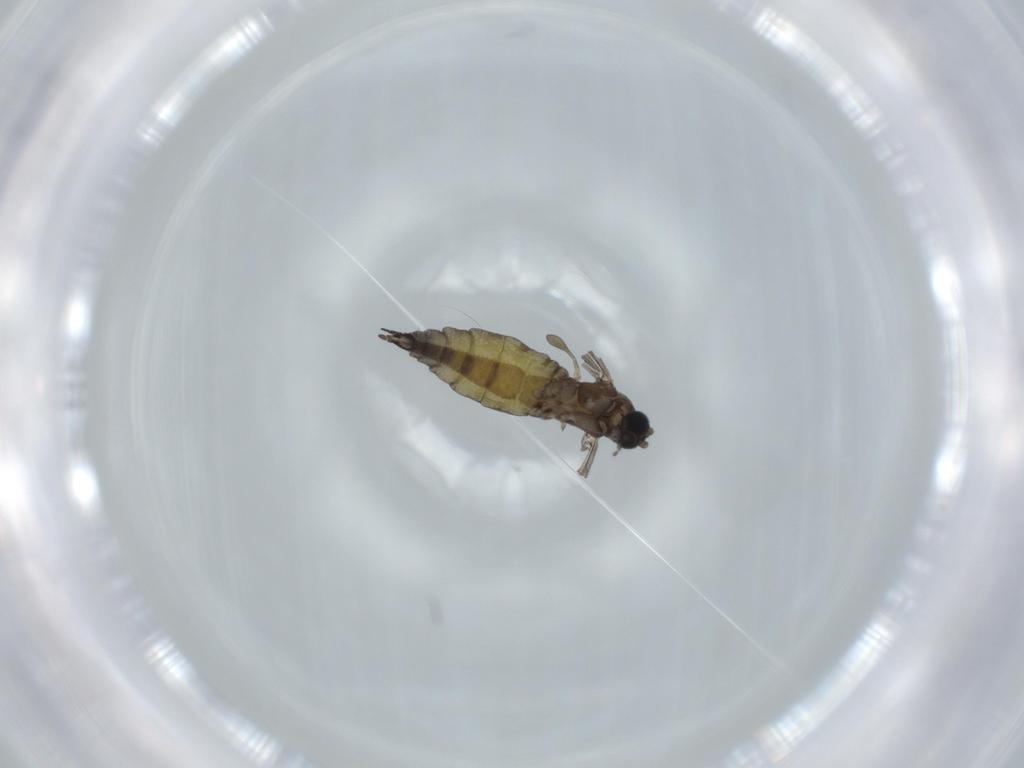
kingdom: Animalia
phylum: Arthropoda
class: Insecta
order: Diptera
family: Sciaridae
